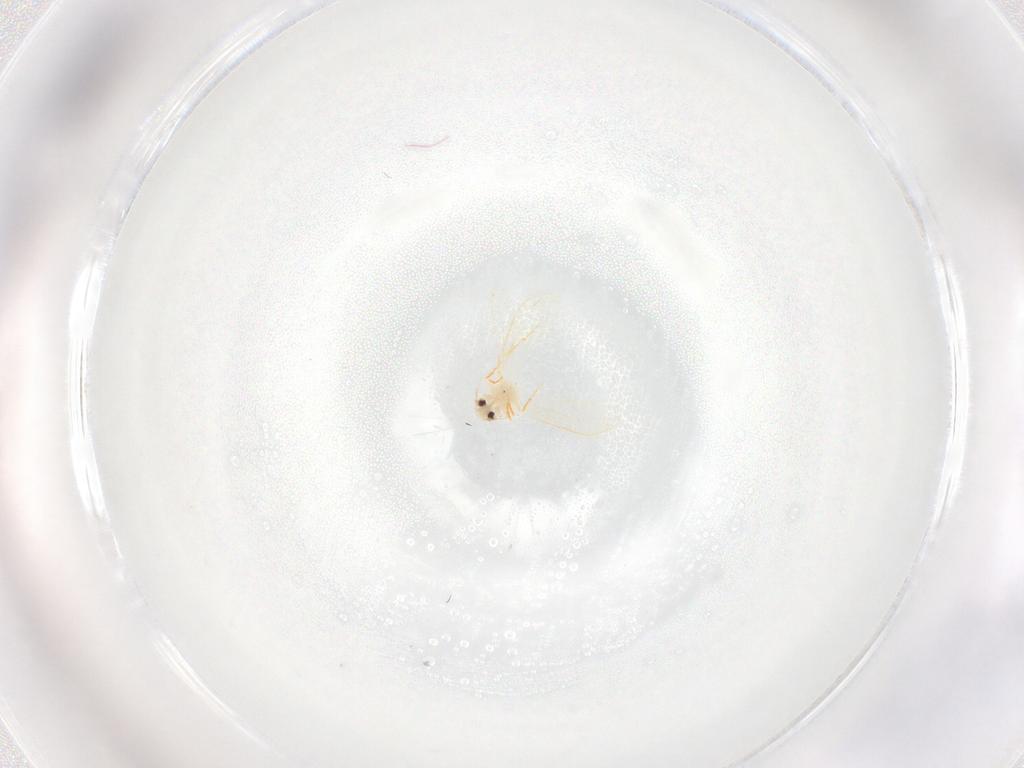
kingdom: Animalia
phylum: Arthropoda
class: Insecta
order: Hemiptera
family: Aleyrodidae
